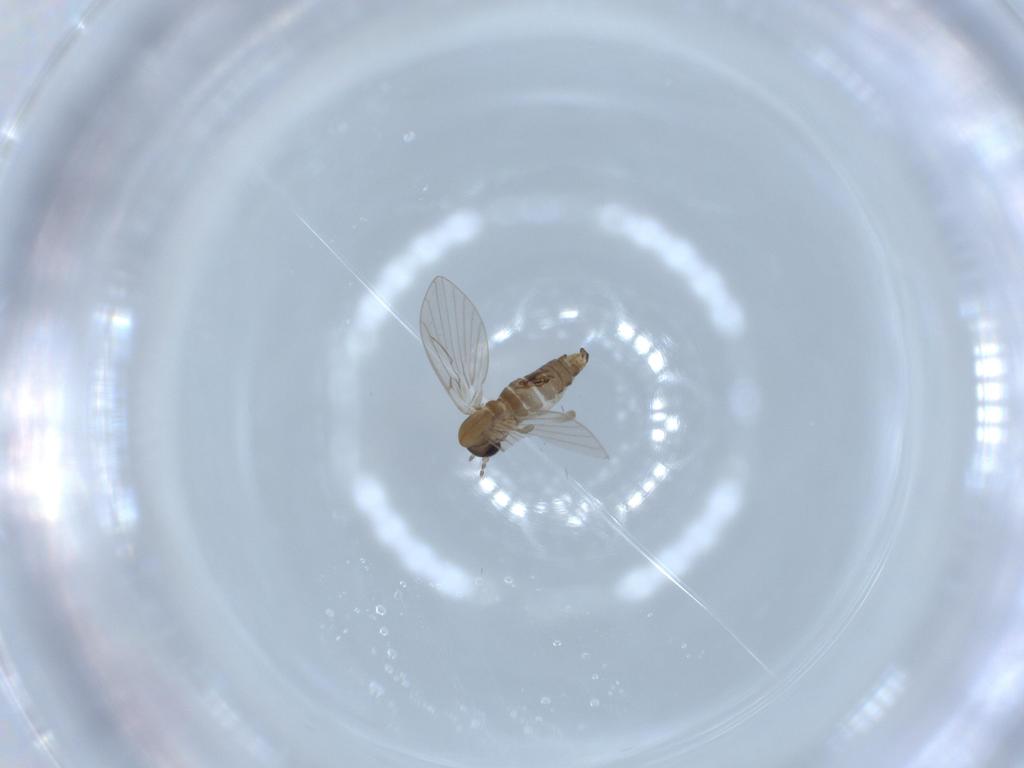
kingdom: Animalia
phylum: Arthropoda
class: Insecta
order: Diptera
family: Psychodidae
